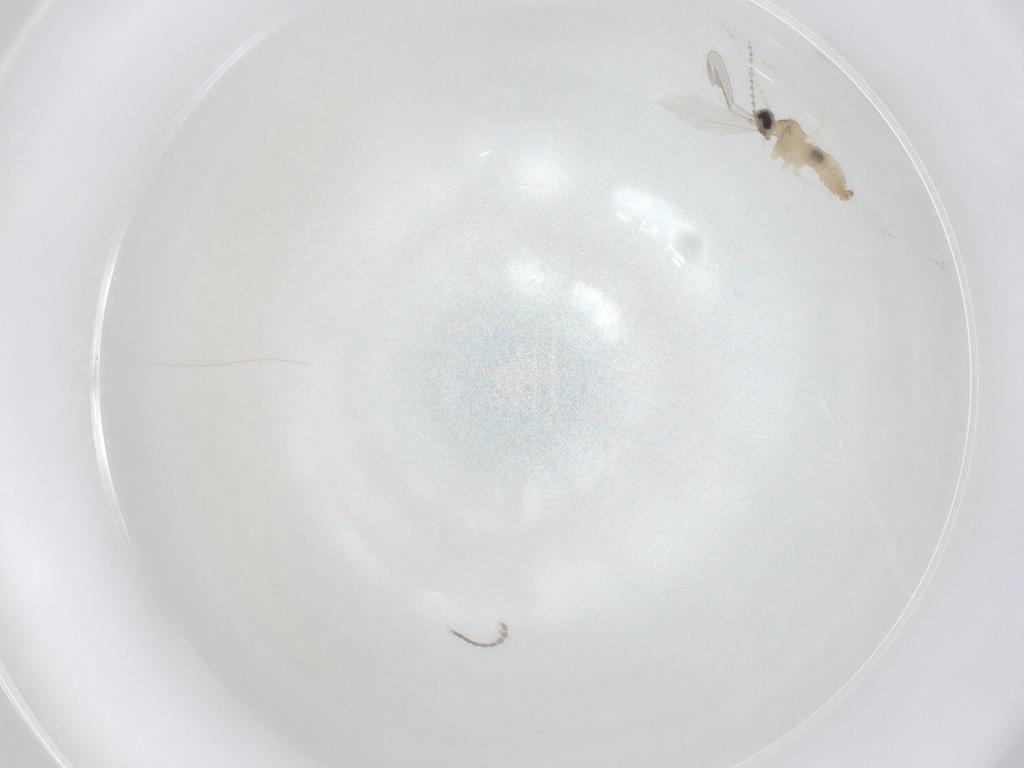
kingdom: Animalia
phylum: Arthropoda
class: Insecta
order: Diptera
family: Cecidomyiidae
